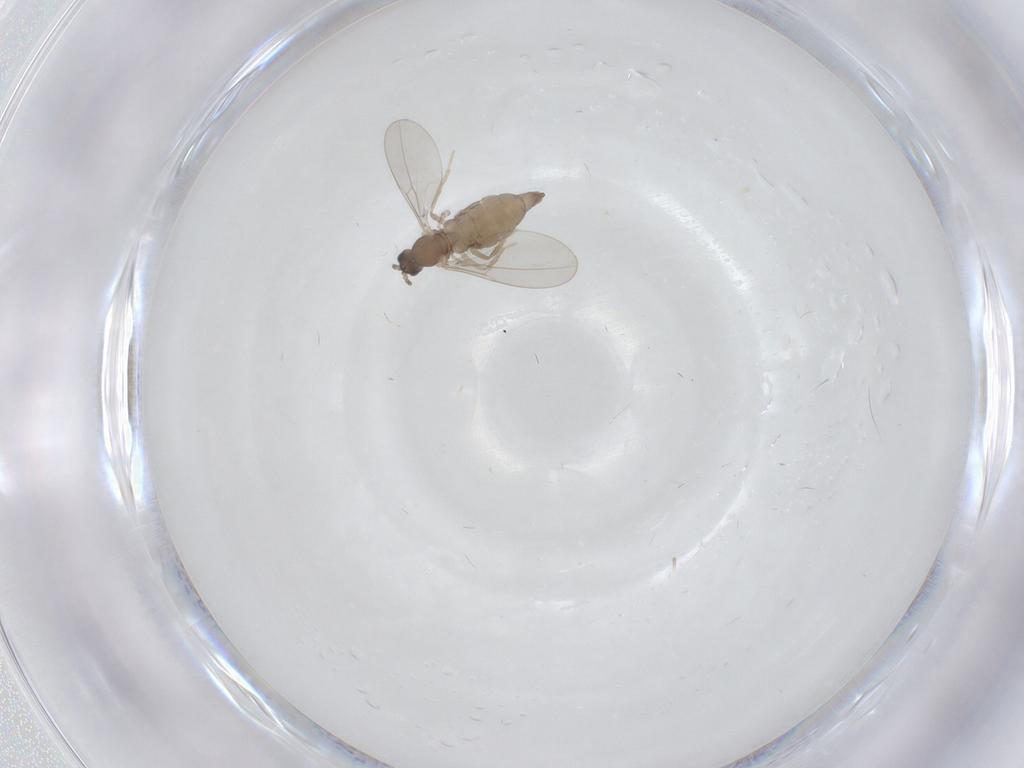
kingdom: Animalia
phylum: Arthropoda
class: Insecta
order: Diptera
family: Cecidomyiidae
